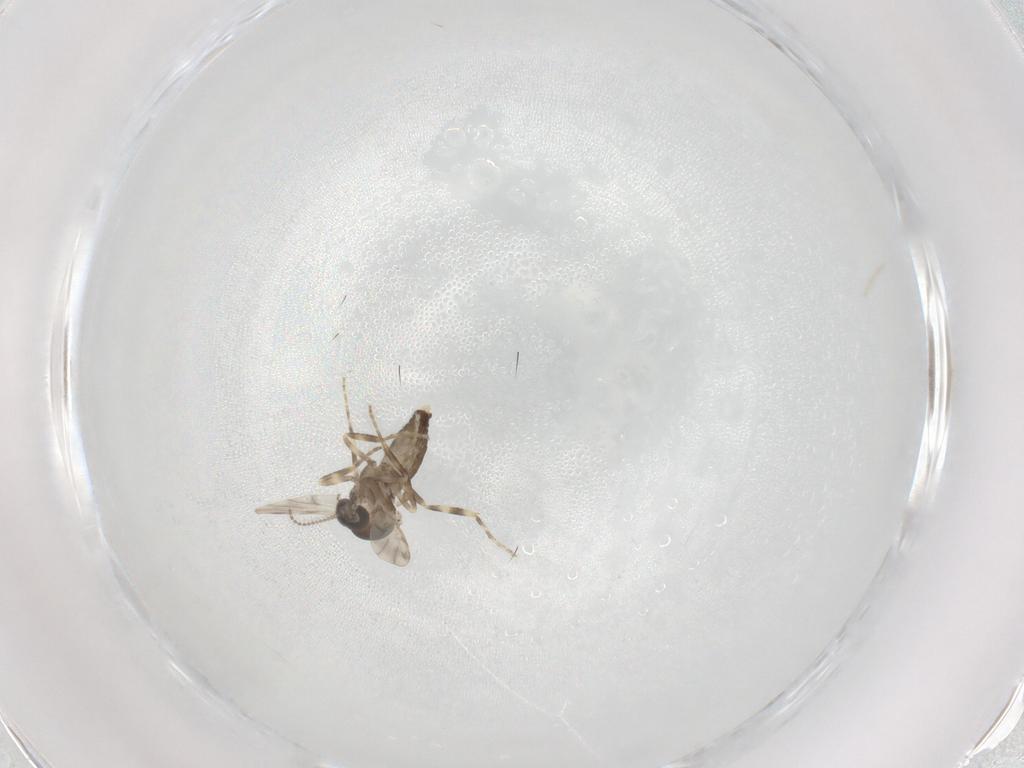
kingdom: Animalia
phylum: Arthropoda
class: Insecta
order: Diptera
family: Ceratopogonidae
